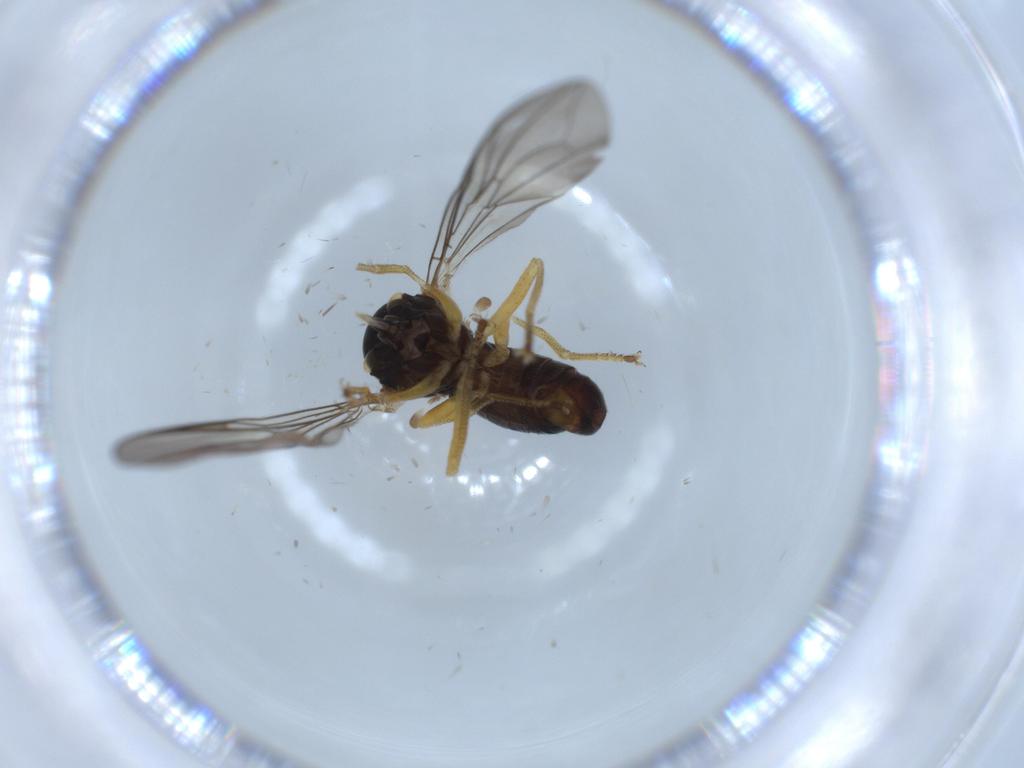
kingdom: Animalia
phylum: Arthropoda
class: Insecta
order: Diptera
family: Pipunculidae
